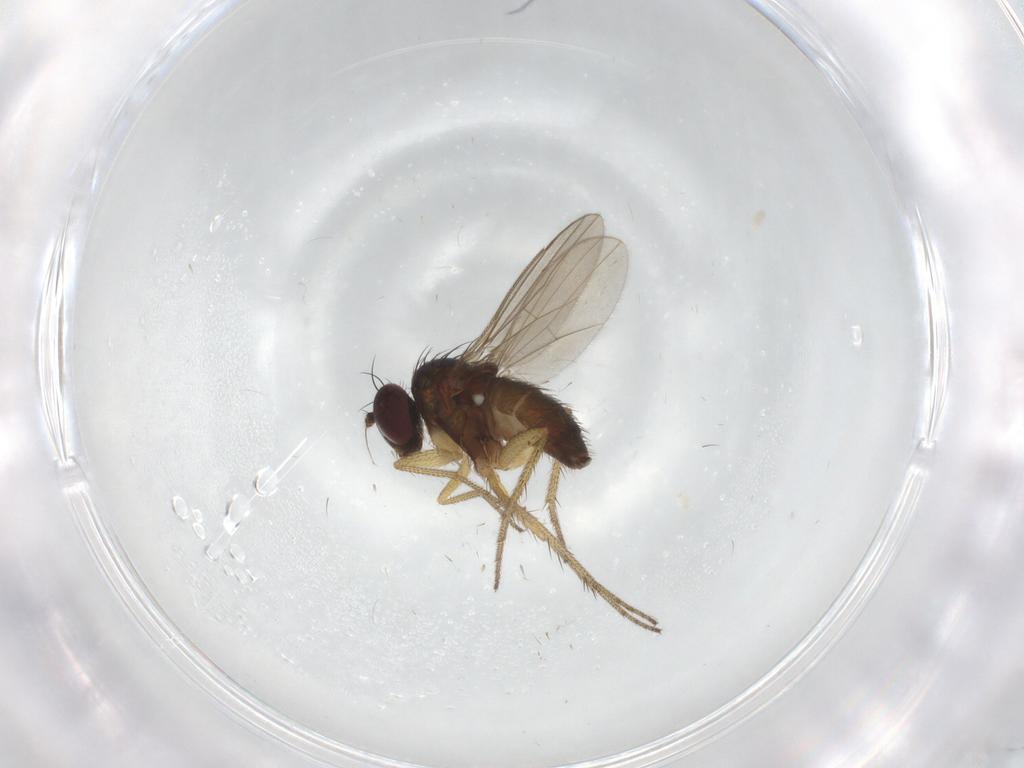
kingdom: Animalia
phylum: Arthropoda
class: Insecta
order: Diptera
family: Dolichopodidae
